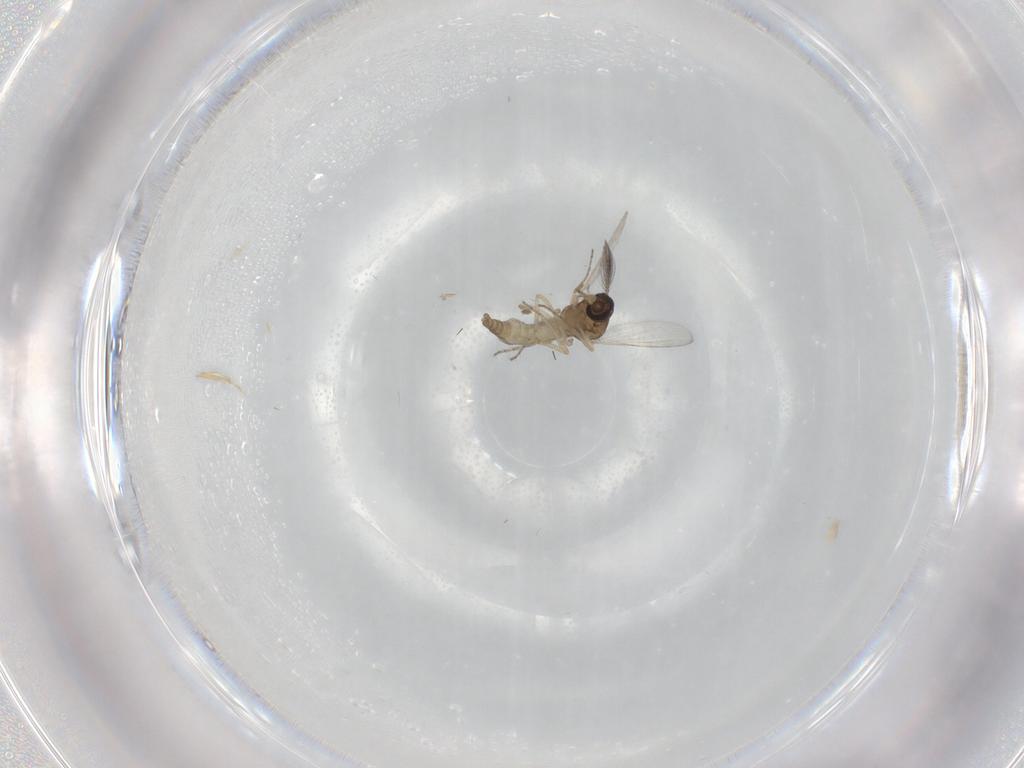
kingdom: Animalia
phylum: Arthropoda
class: Insecta
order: Diptera
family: Ceratopogonidae
